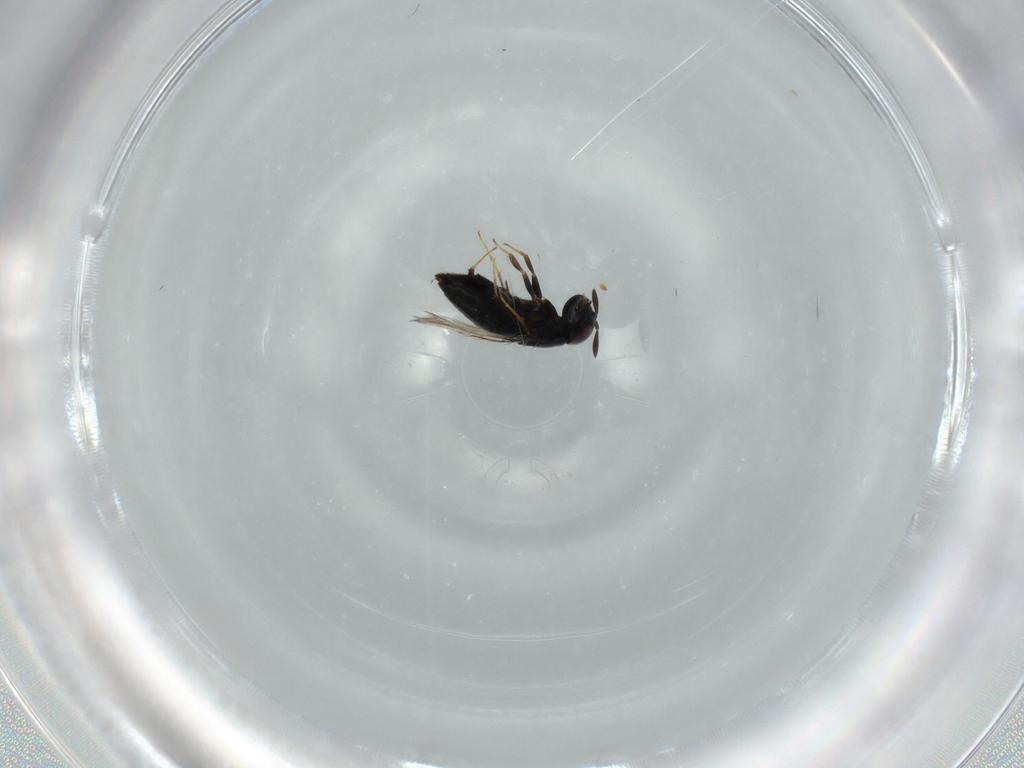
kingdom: Animalia
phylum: Arthropoda
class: Insecta
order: Hymenoptera
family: Signiphoridae
